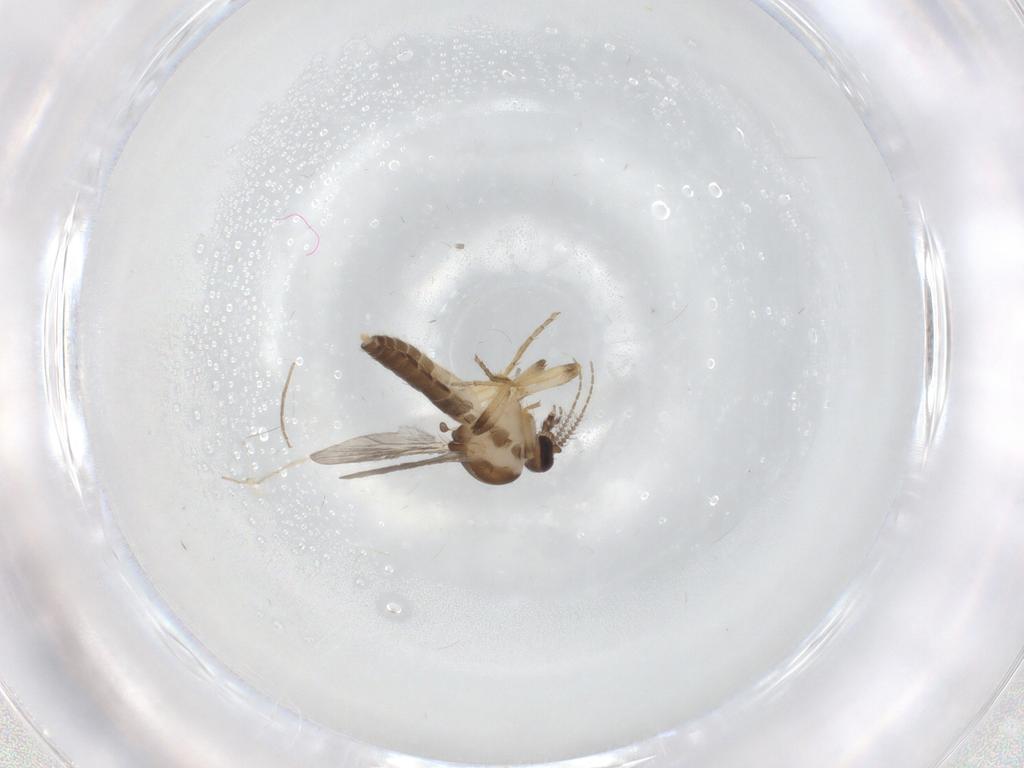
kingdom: Animalia
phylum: Arthropoda
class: Insecta
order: Diptera
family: Ceratopogonidae
